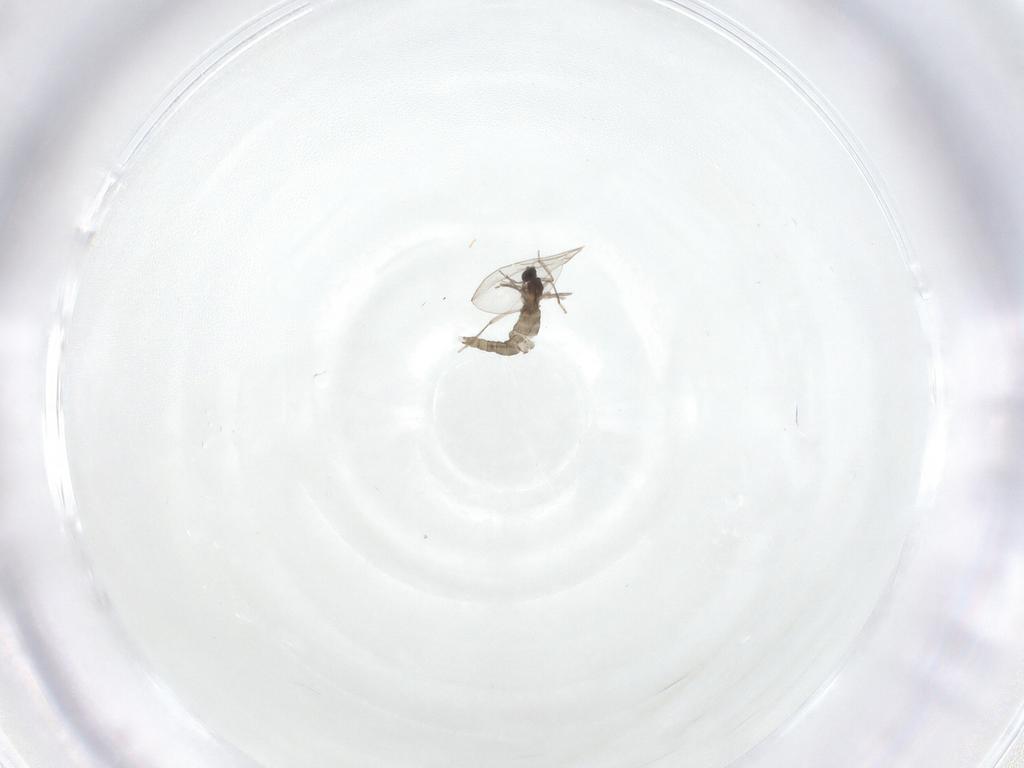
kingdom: Animalia
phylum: Arthropoda
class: Insecta
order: Diptera
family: Cecidomyiidae
